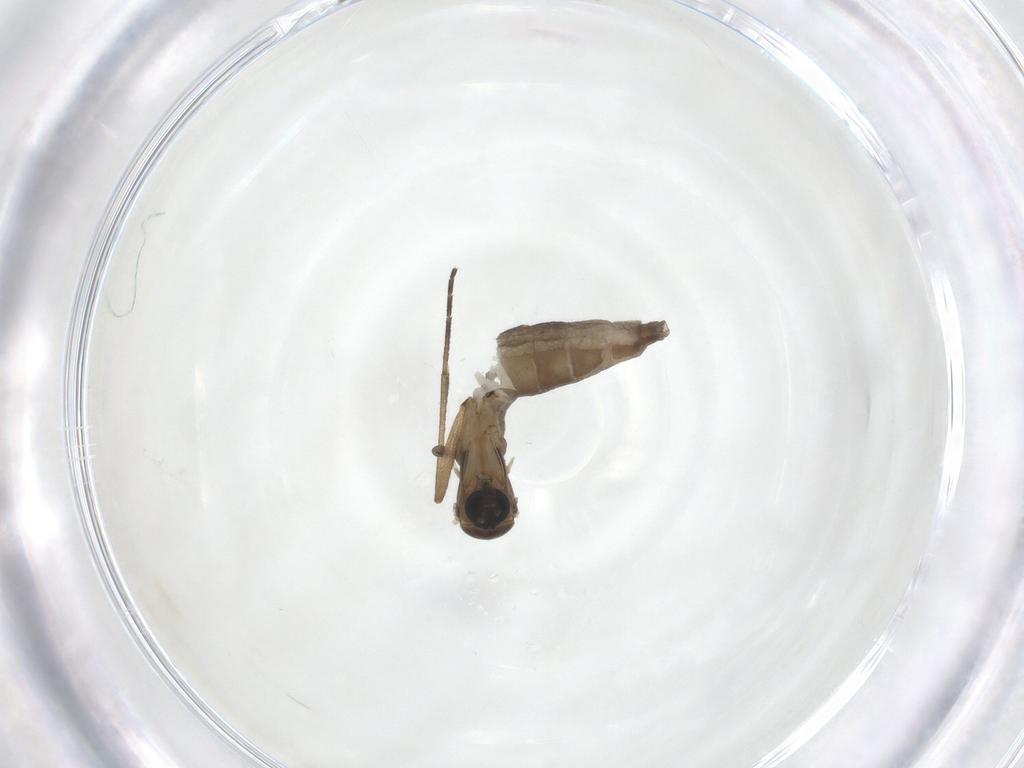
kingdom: Animalia
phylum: Arthropoda
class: Insecta
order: Diptera
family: Sciaridae
